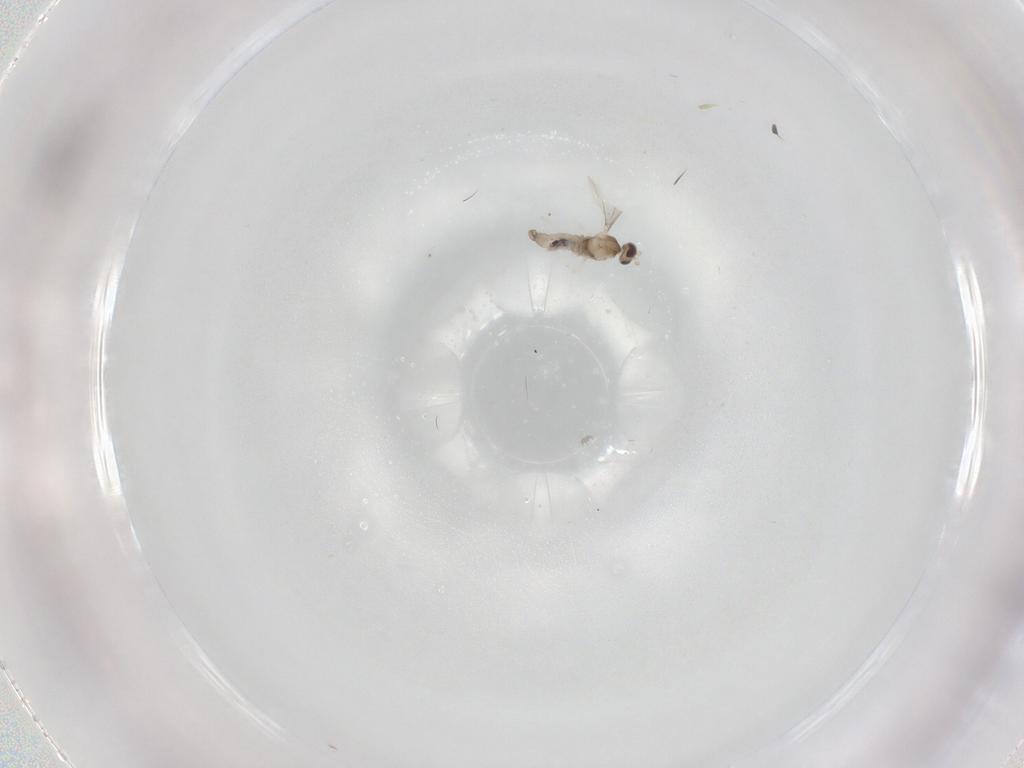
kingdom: Animalia
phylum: Arthropoda
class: Insecta
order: Diptera
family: Cecidomyiidae
